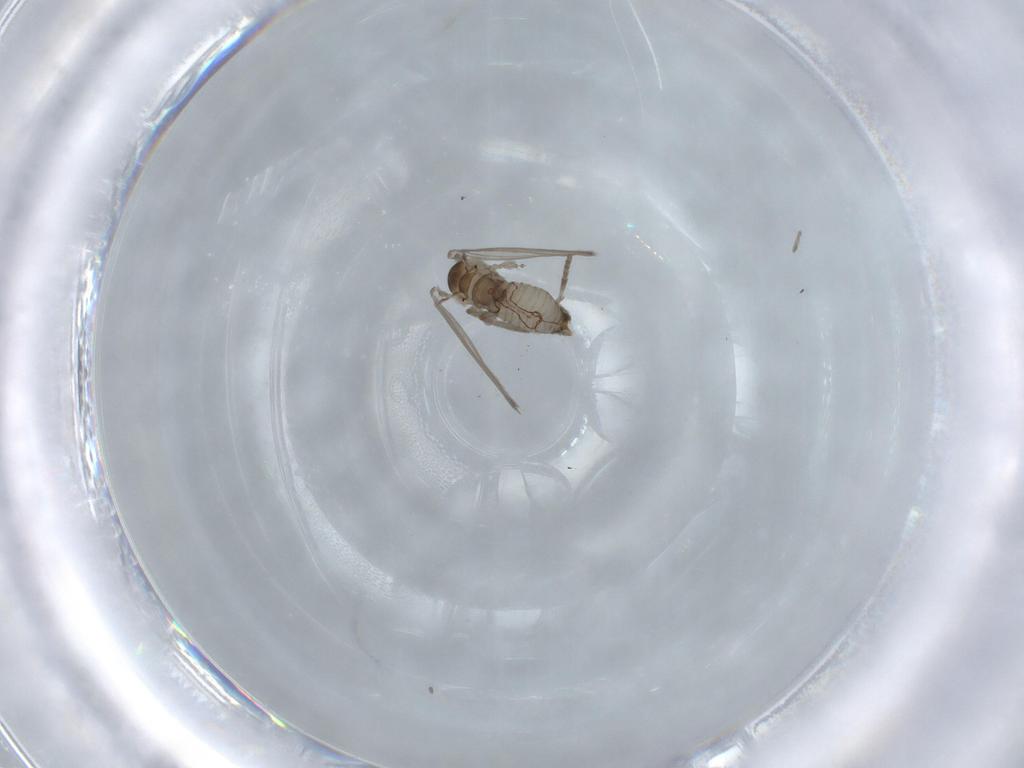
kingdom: Animalia
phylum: Arthropoda
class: Insecta
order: Diptera
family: Psychodidae
